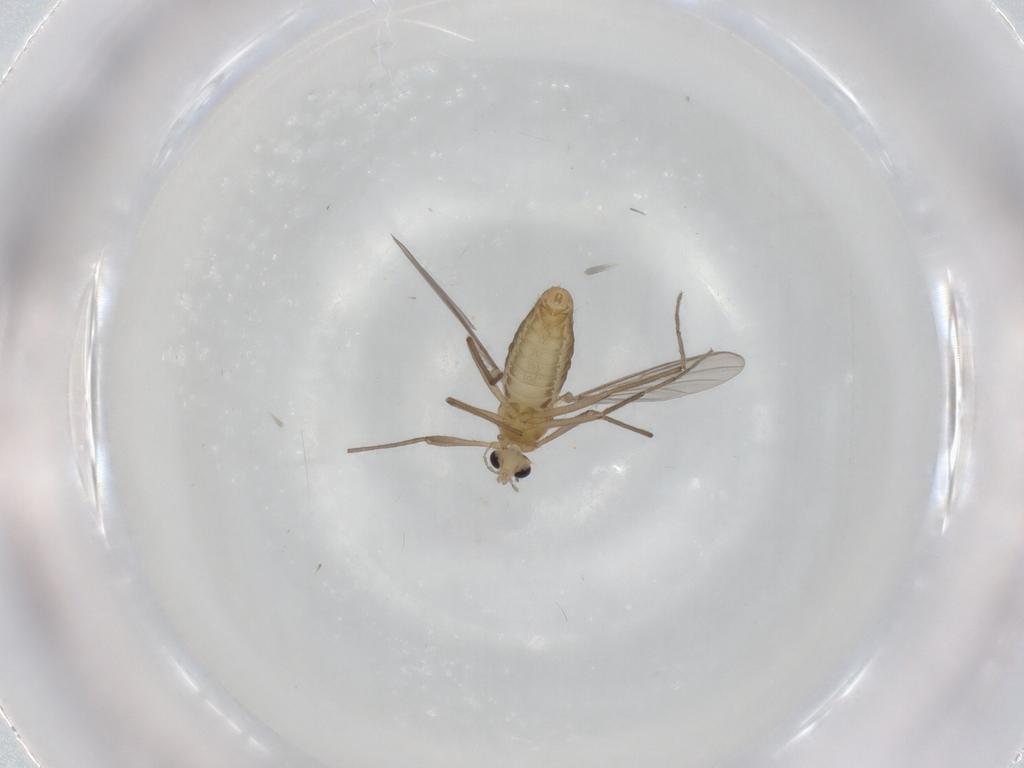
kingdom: Animalia
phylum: Arthropoda
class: Insecta
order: Diptera
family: Chironomidae
